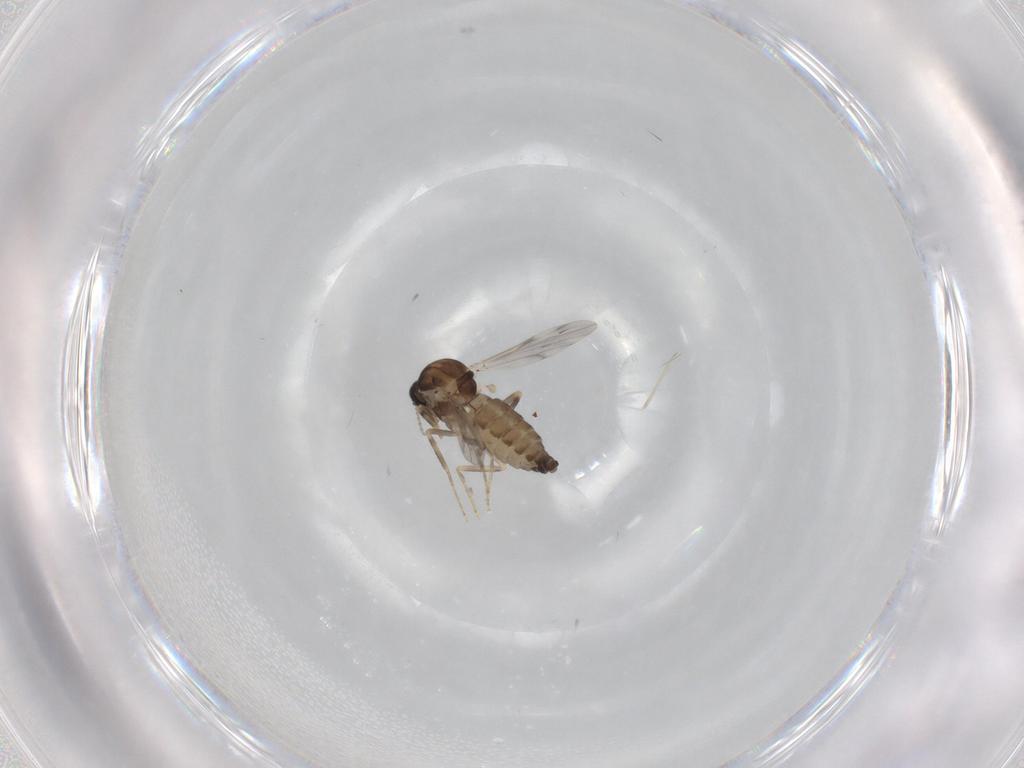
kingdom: Animalia
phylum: Arthropoda
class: Insecta
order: Diptera
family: Ceratopogonidae
